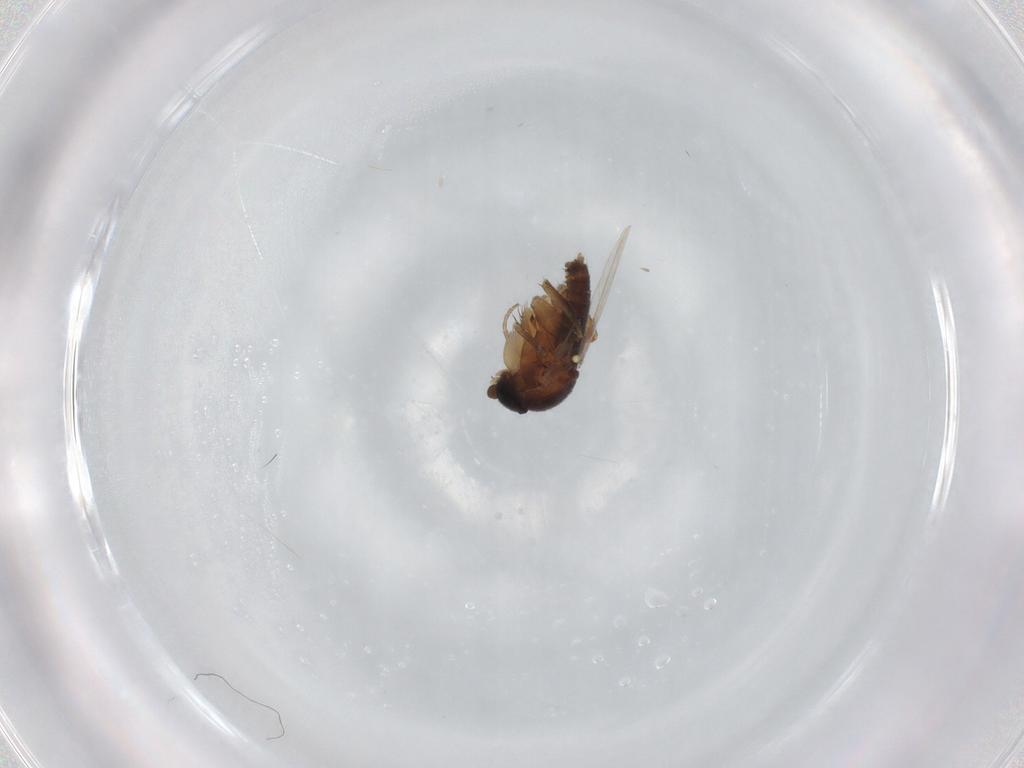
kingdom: Animalia
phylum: Arthropoda
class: Insecta
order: Diptera
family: Phoridae
